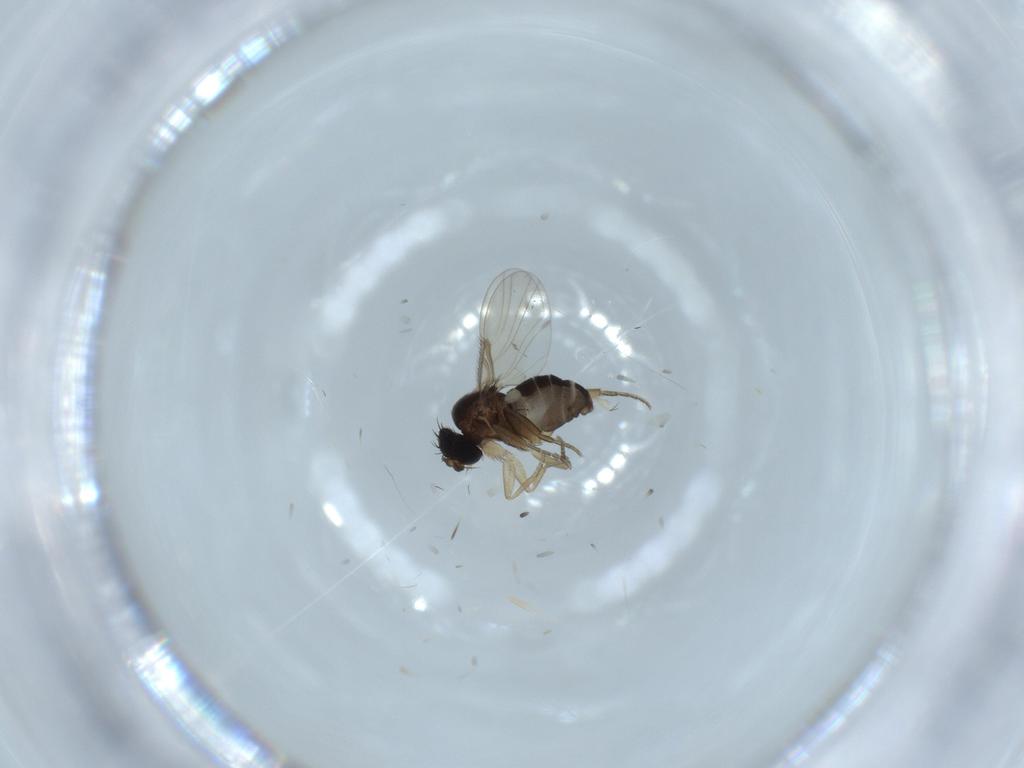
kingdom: Animalia
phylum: Arthropoda
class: Insecta
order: Diptera
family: Phoridae
